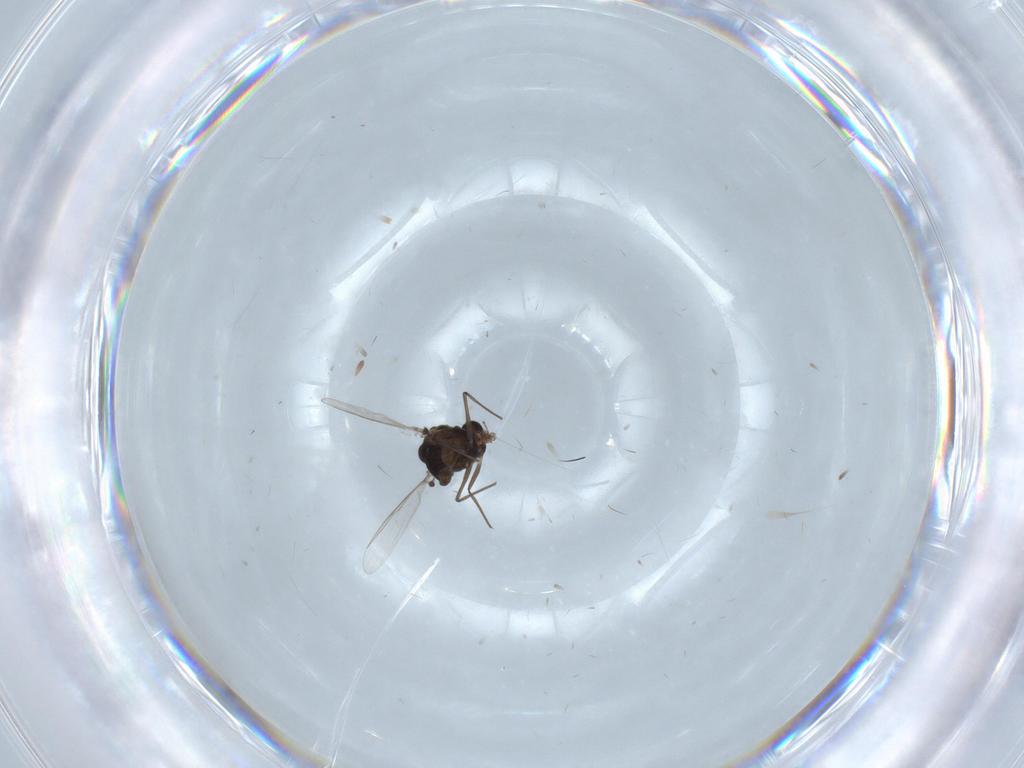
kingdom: Animalia
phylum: Arthropoda
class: Insecta
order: Diptera
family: Chironomidae
